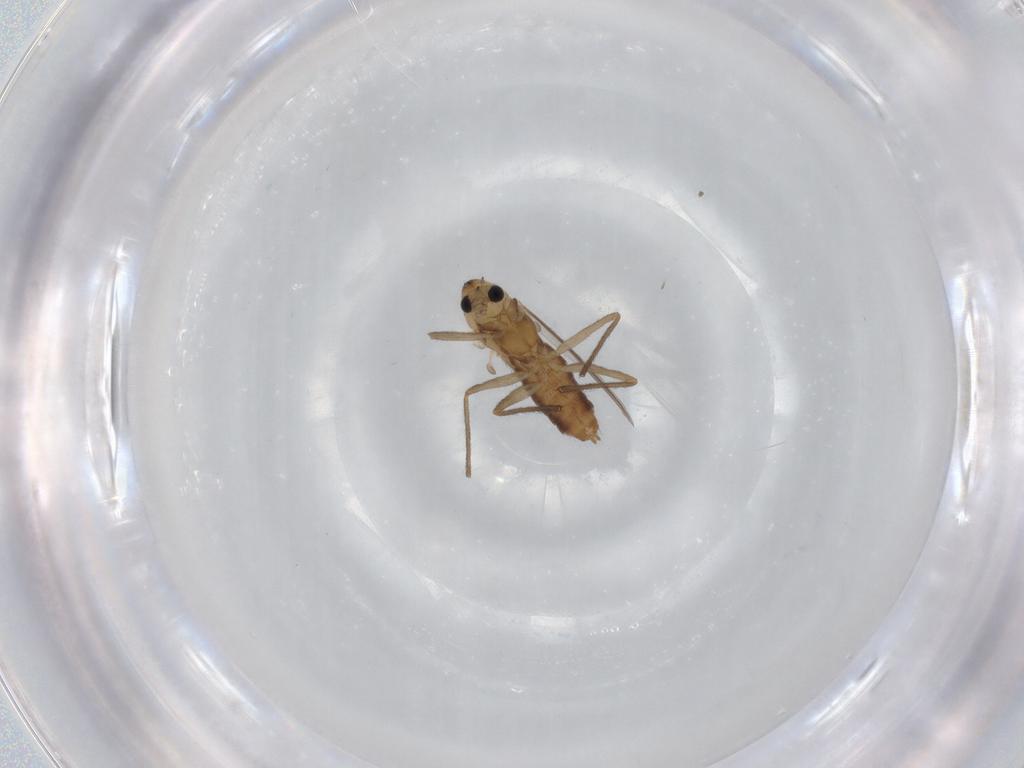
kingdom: Animalia
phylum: Arthropoda
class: Insecta
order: Diptera
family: Chironomidae
